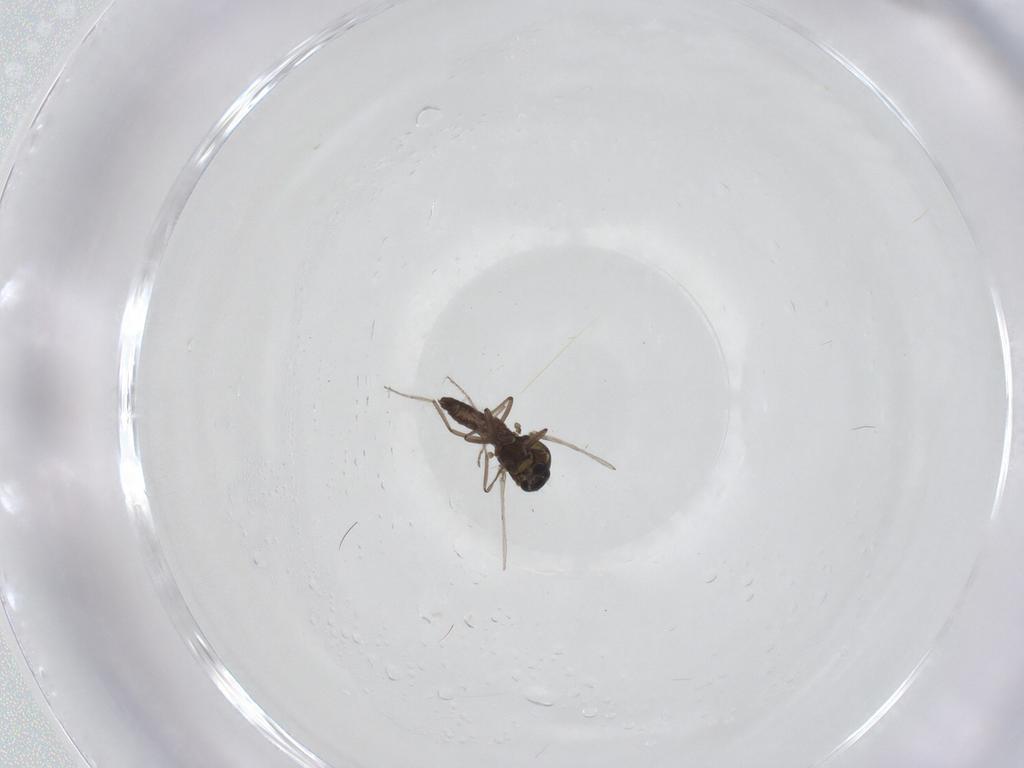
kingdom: Animalia
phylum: Arthropoda
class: Insecta
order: Diptera
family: Ceratopogonidae
